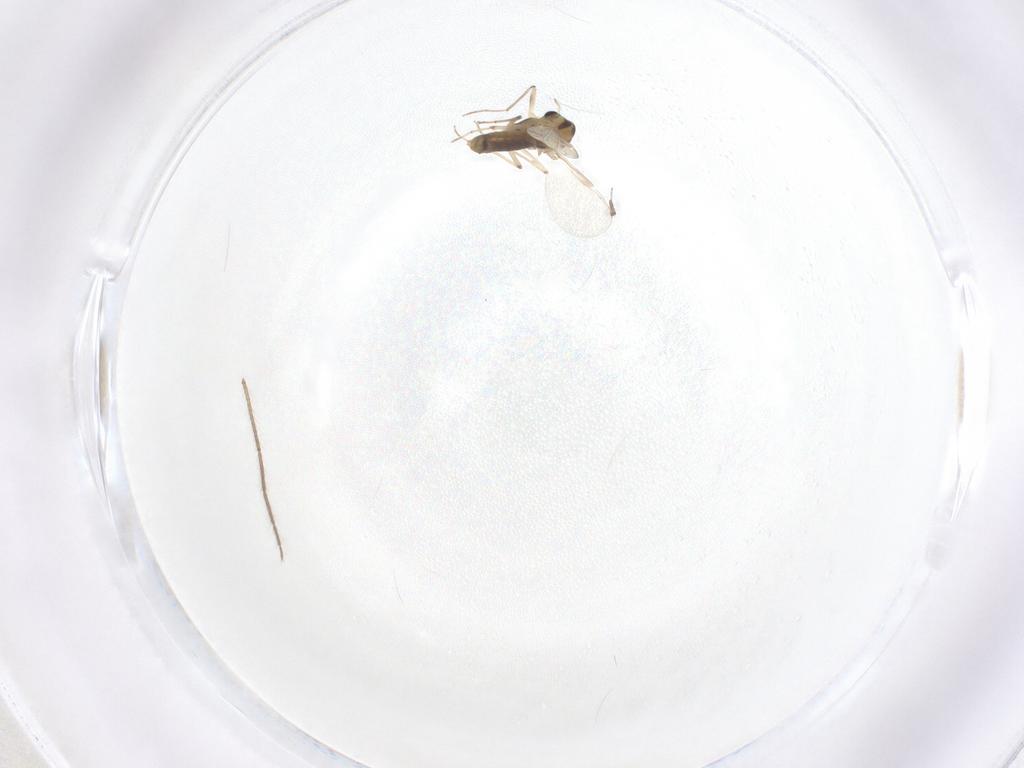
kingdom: Animalia
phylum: Arthropoda
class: Insecta
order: Diptera
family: Chironomidae
